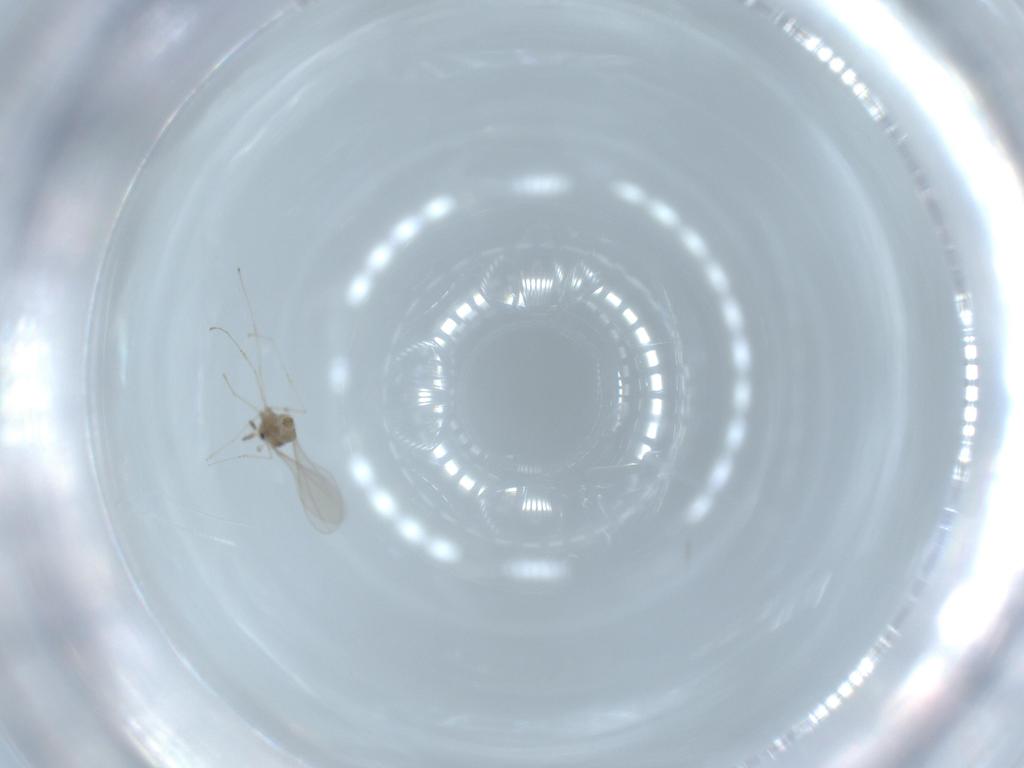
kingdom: Animalia
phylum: Arthropoda
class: Insecta
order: Diptera
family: Cecidomyiidae
